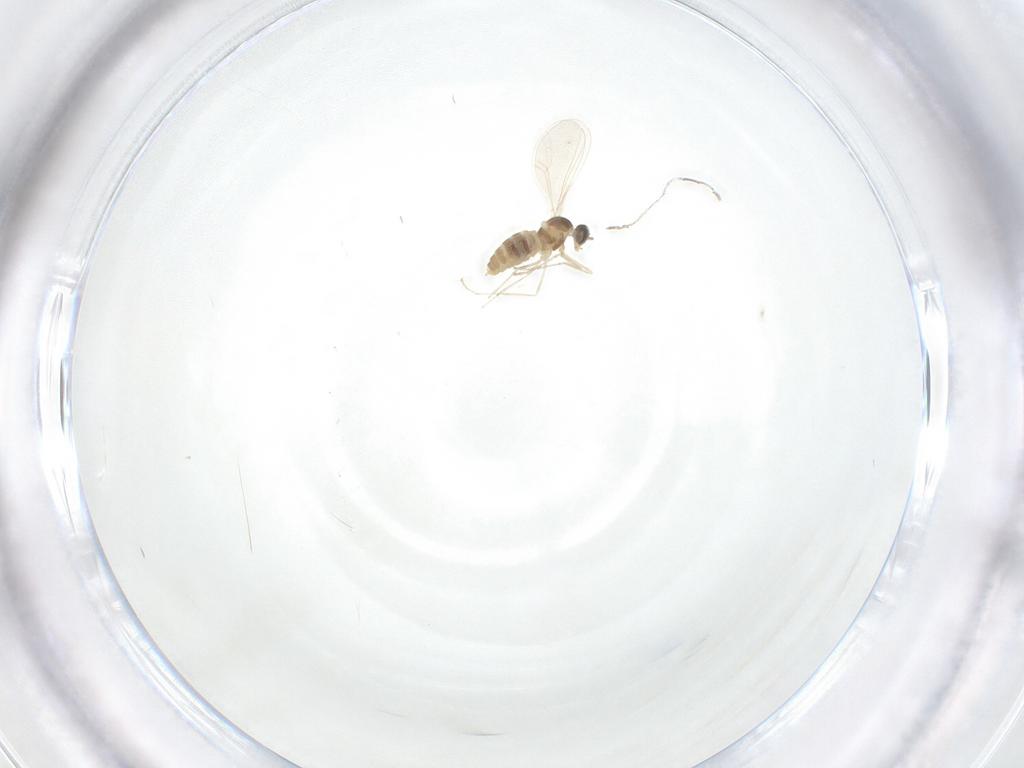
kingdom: Animalia
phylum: Arthropoda
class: Insecta
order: Diptera
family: Cecidomyiidae
